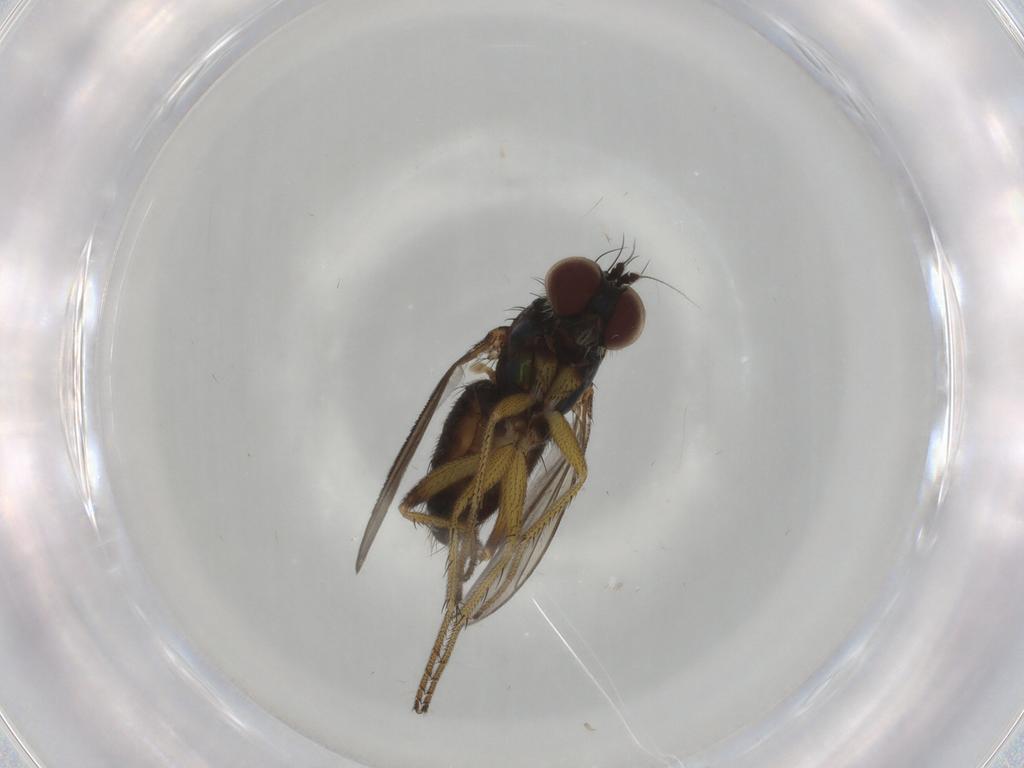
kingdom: Animalia
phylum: Arthropoda
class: Insecta
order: Diptera
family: Dolichopodidae
